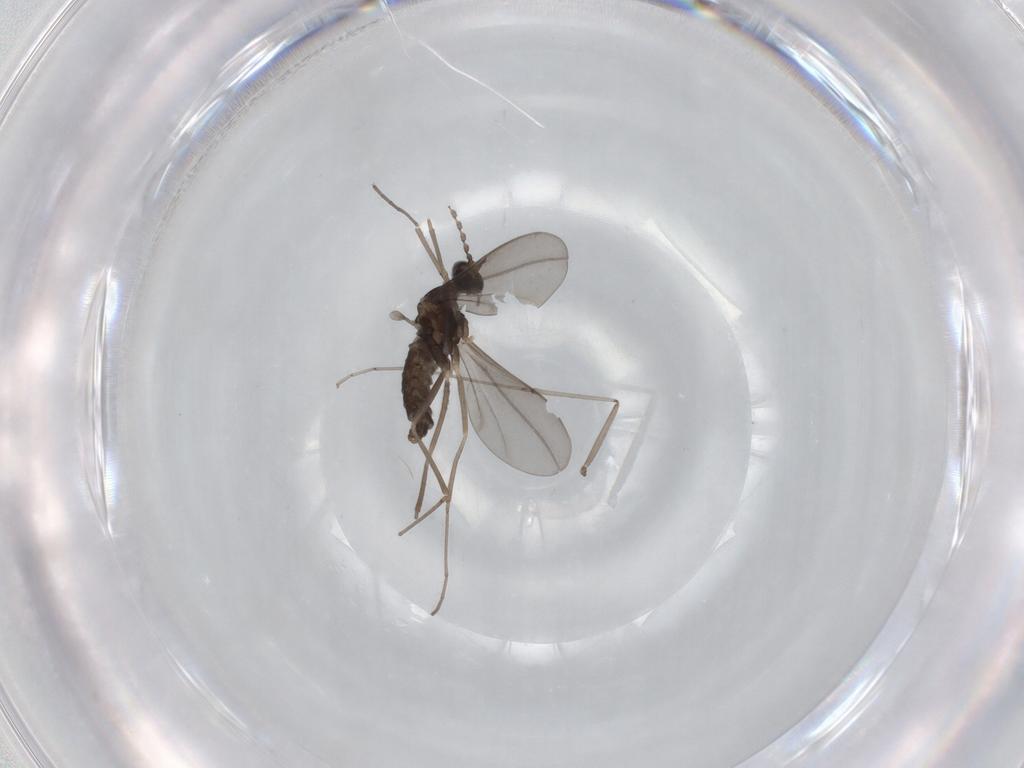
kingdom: Animalia
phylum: Arthropoda
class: Insecta
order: Diptera
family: Cecidomyiidae
